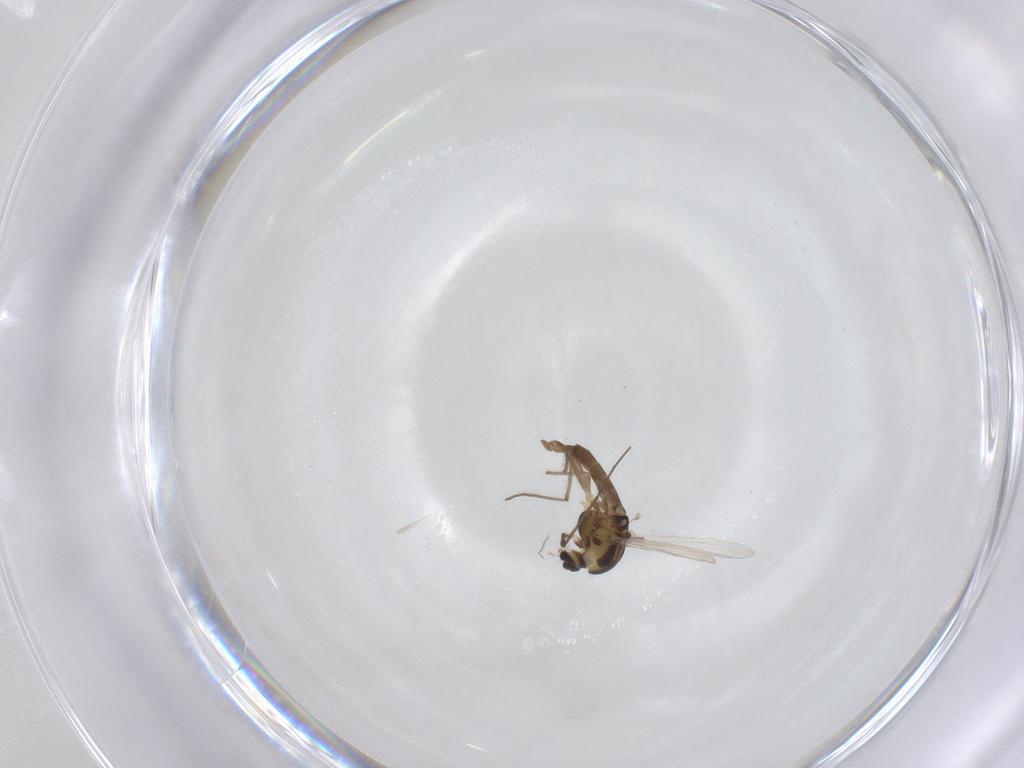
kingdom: Animalia
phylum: Arthropoda
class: Insecta
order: Diptera
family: Chironomidae
